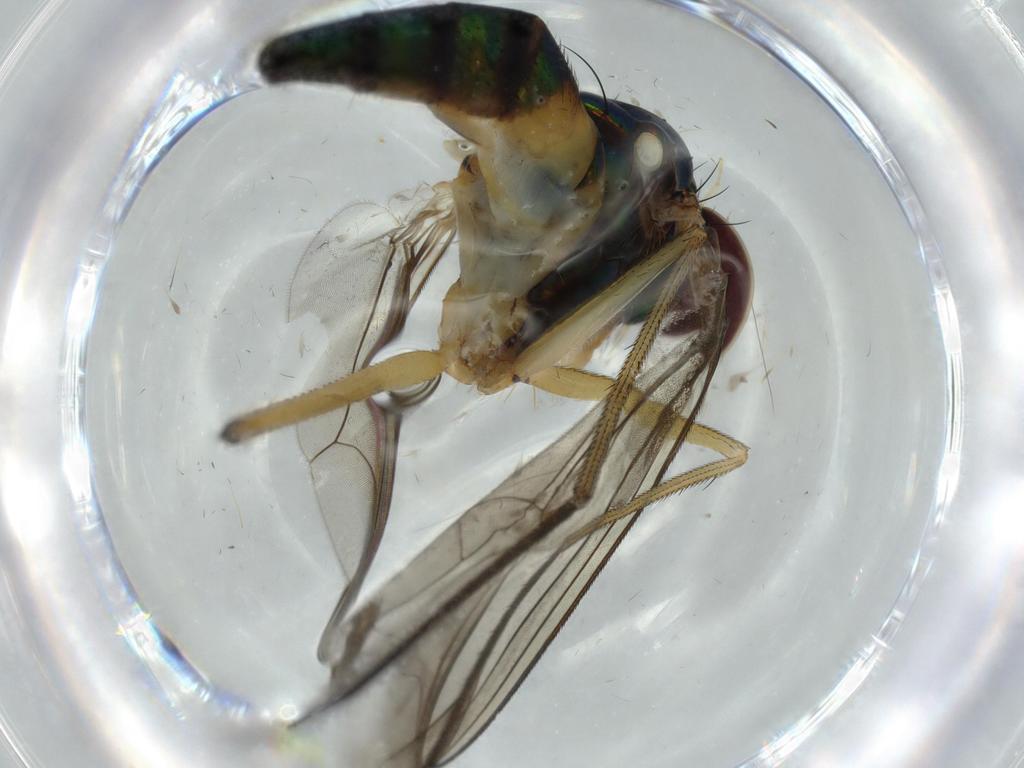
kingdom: Animalia
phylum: Arthropoda
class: Insecta
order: Diptera
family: Dolichopodidae
